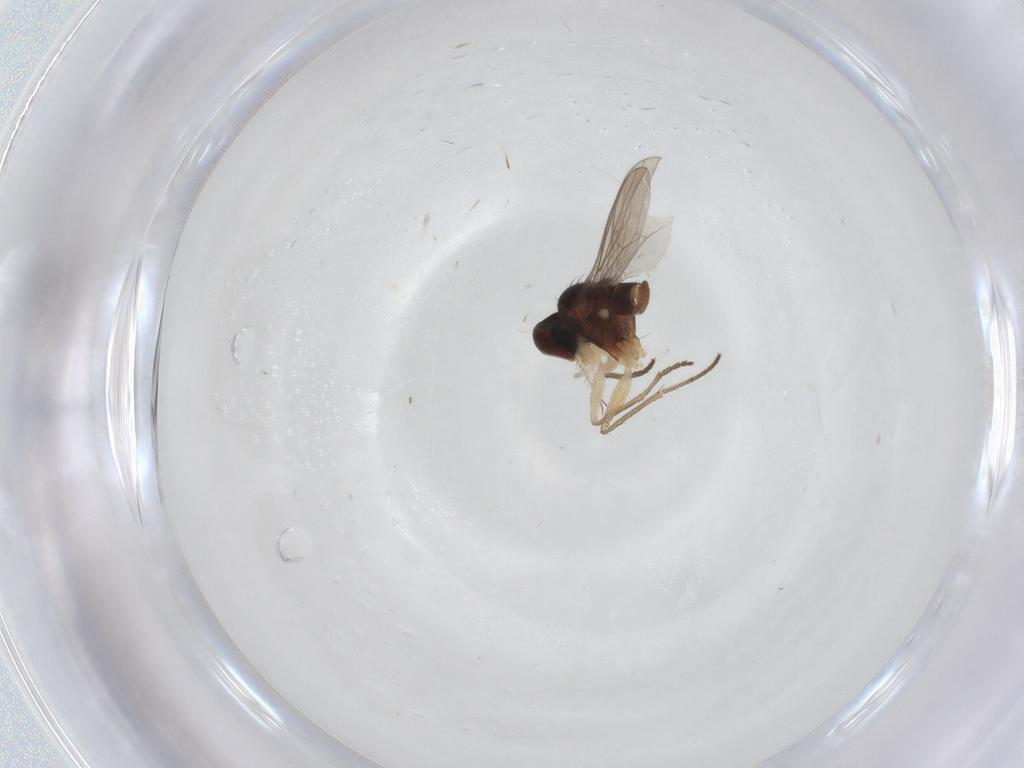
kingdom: Animalia
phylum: Arthropoda
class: Insecta
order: Diptera
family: Dolichopodidae
